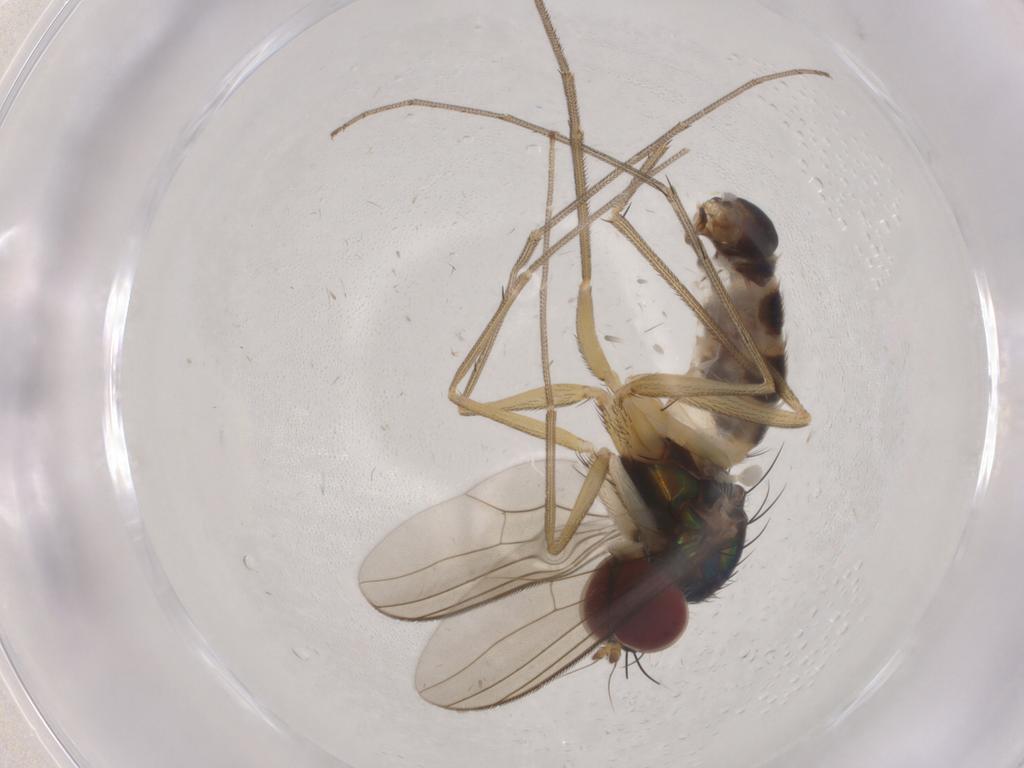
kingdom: Animalia
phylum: Arthropoda
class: Insecta
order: Diptera
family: Dolichopodidae
